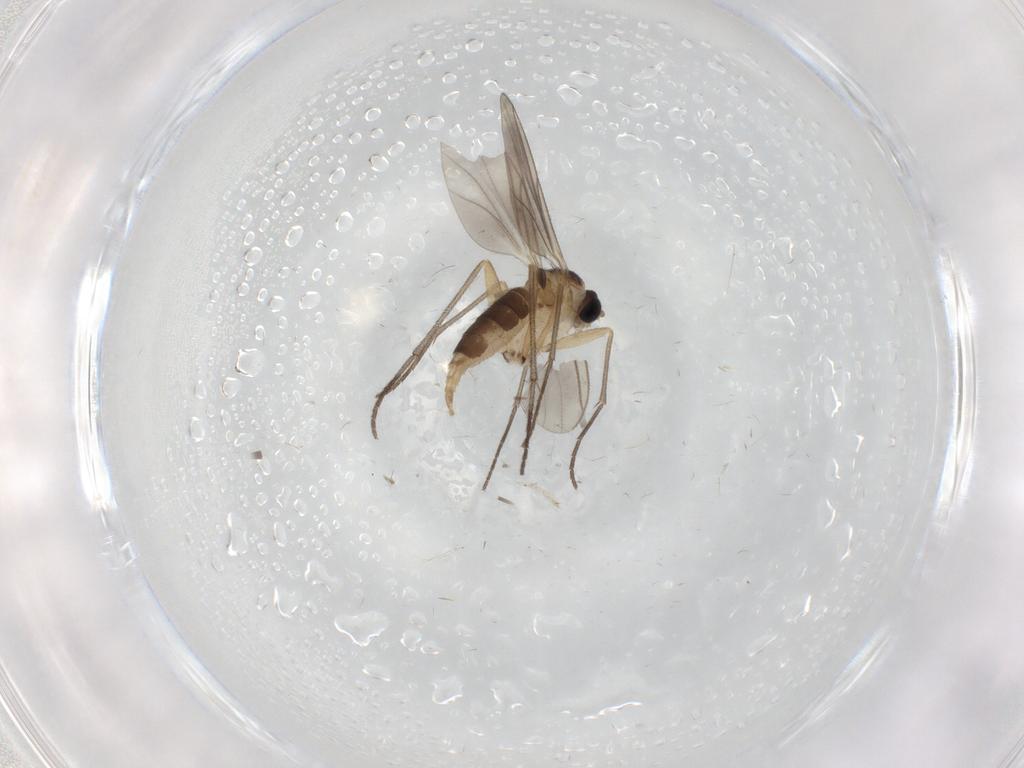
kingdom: Animalia
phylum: Arthropoda
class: Insecta
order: Diptera
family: Sciaridae
